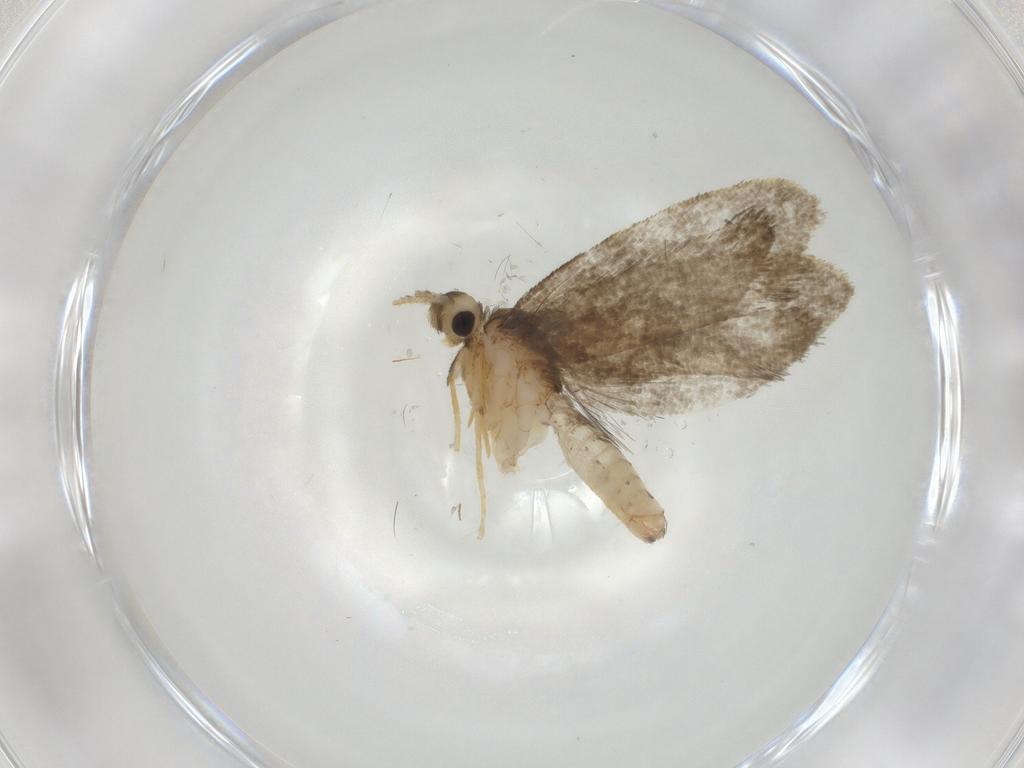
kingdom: Animalia
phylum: Arthropoda
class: Insecta
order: Lepidoptera
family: Psychidae
